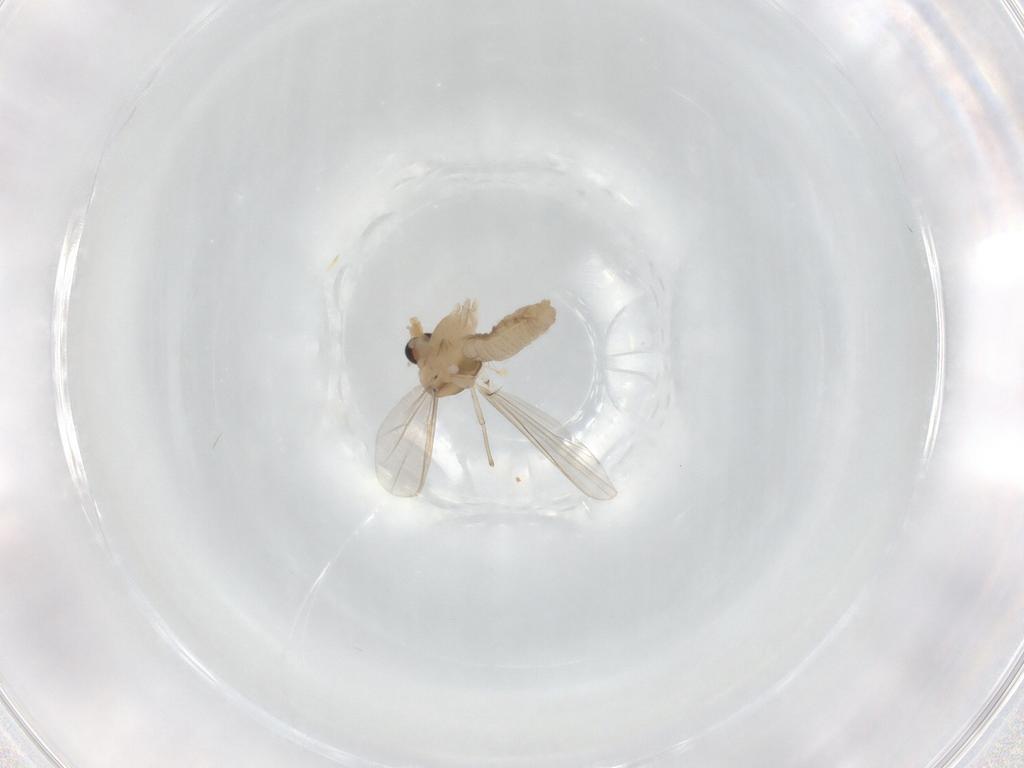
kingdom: Animalia
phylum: Arthropoda
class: Insecta
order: Diptera
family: Chironomidae
